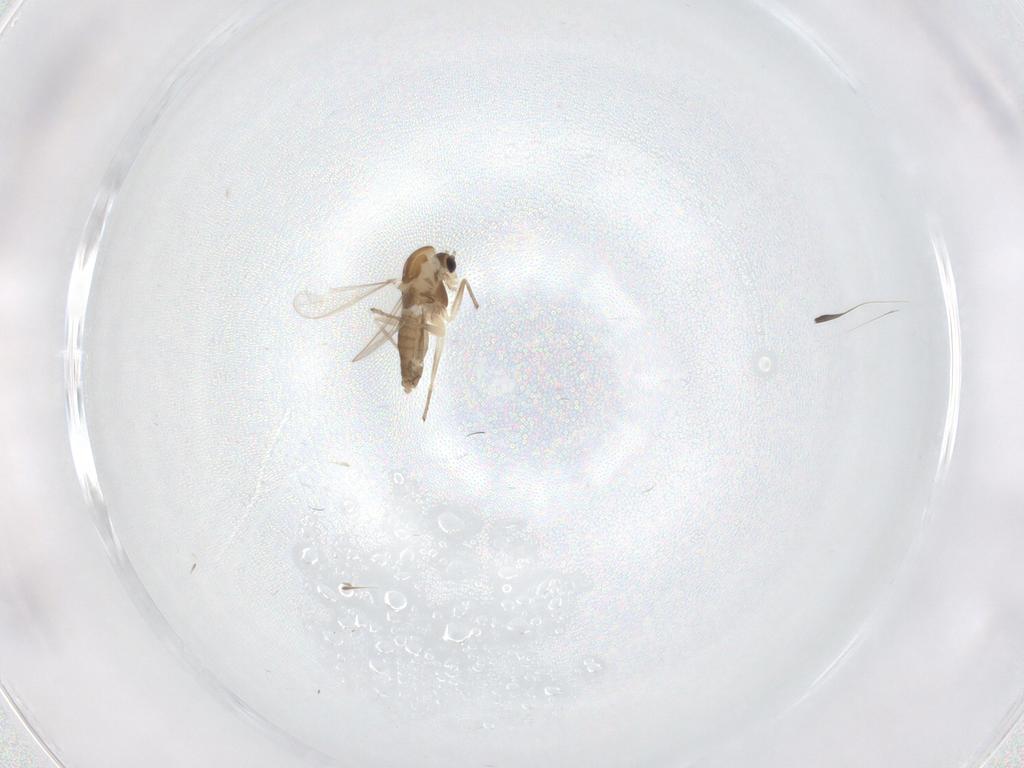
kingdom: Animalia
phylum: Arthropoda
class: Insecta
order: Diptera
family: Chironomidae
